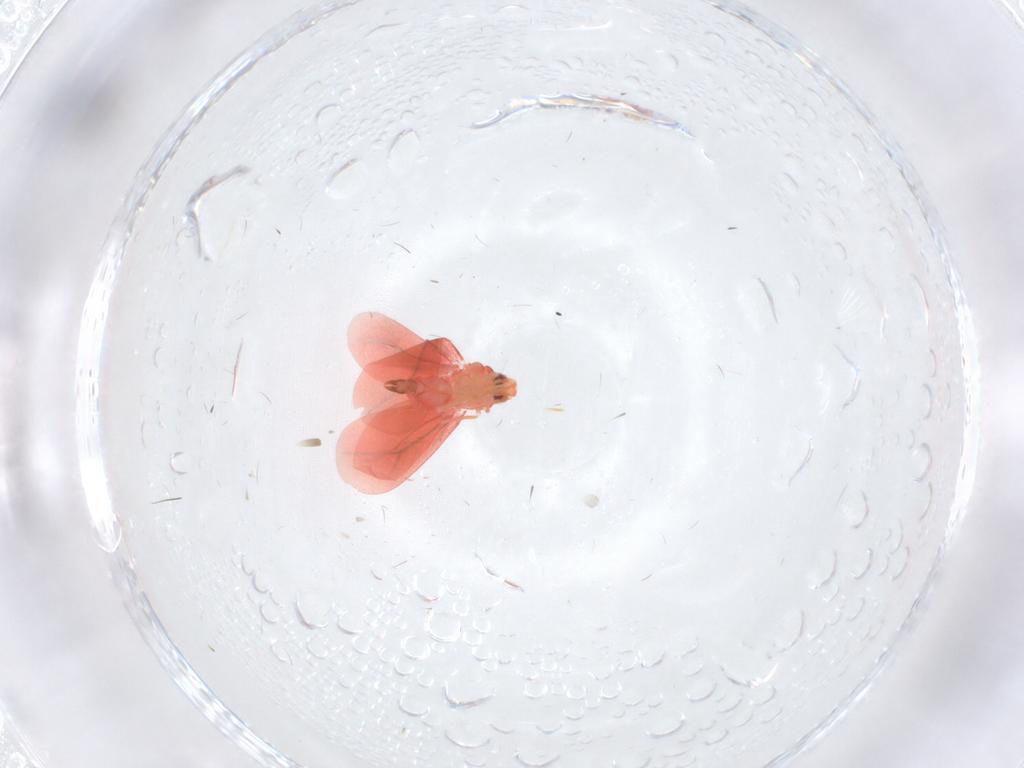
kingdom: Animalia
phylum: Arthropoda
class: Insecta
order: Hemiptera
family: Aleyrodidae
